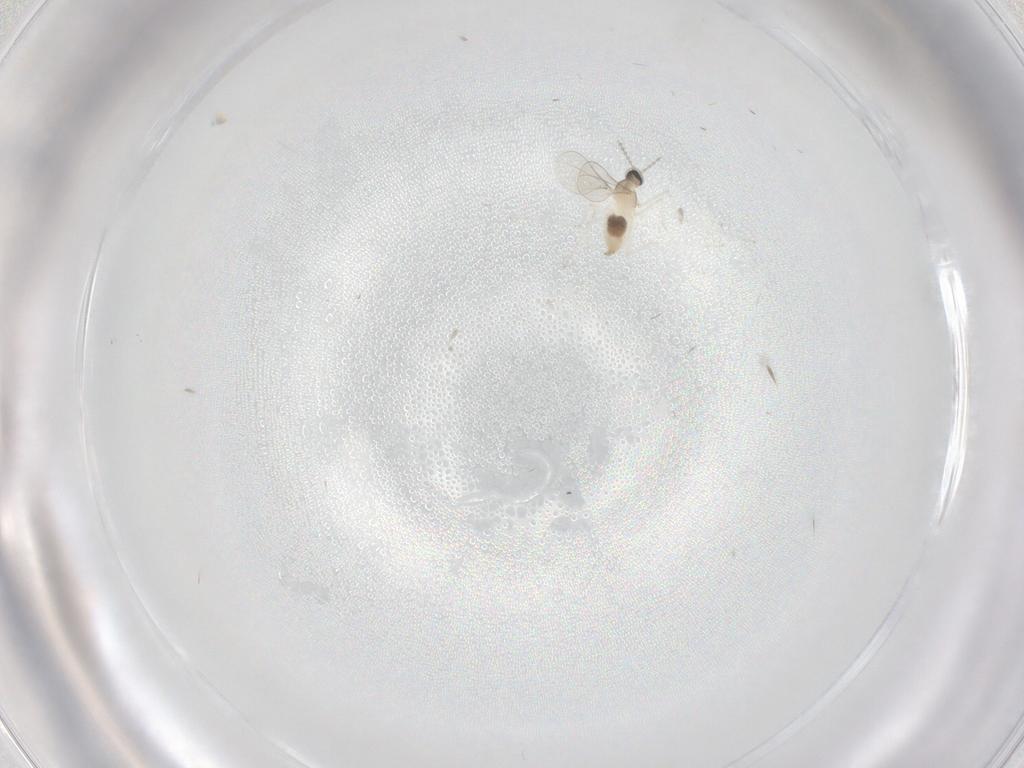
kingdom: Animalia
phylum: Arthropoda
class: Insecta
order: Diptera
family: Cecidomyiidae
